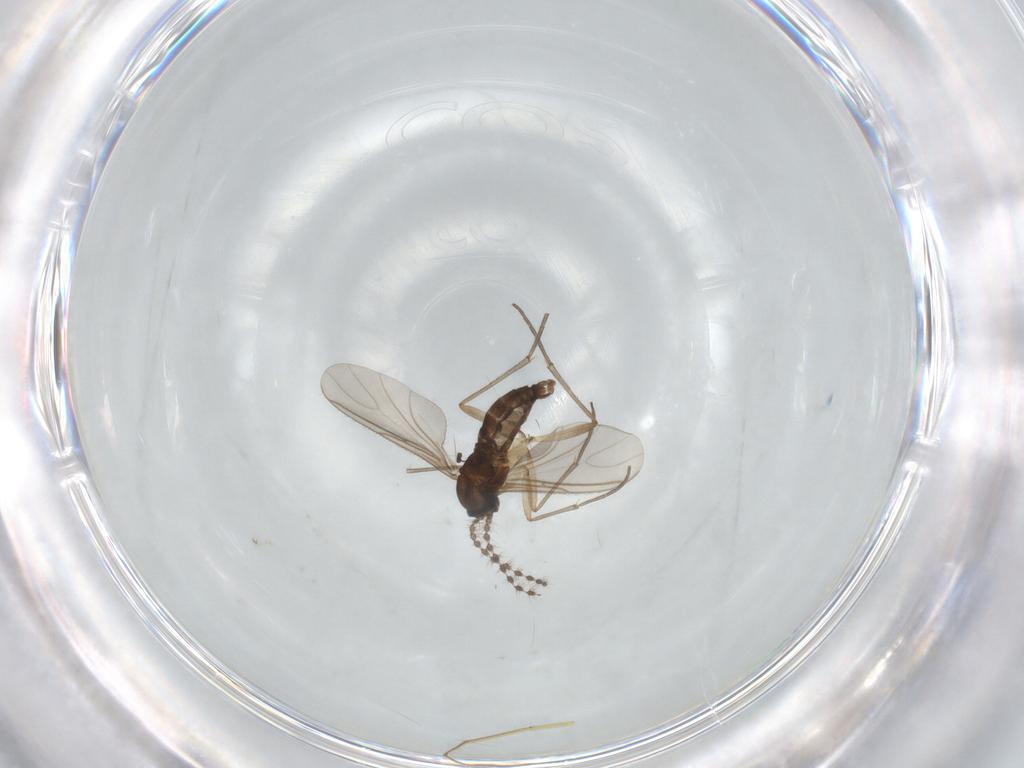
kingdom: Animalia
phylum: Arthropoda
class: Insecta
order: Diptera
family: Sciaridae
